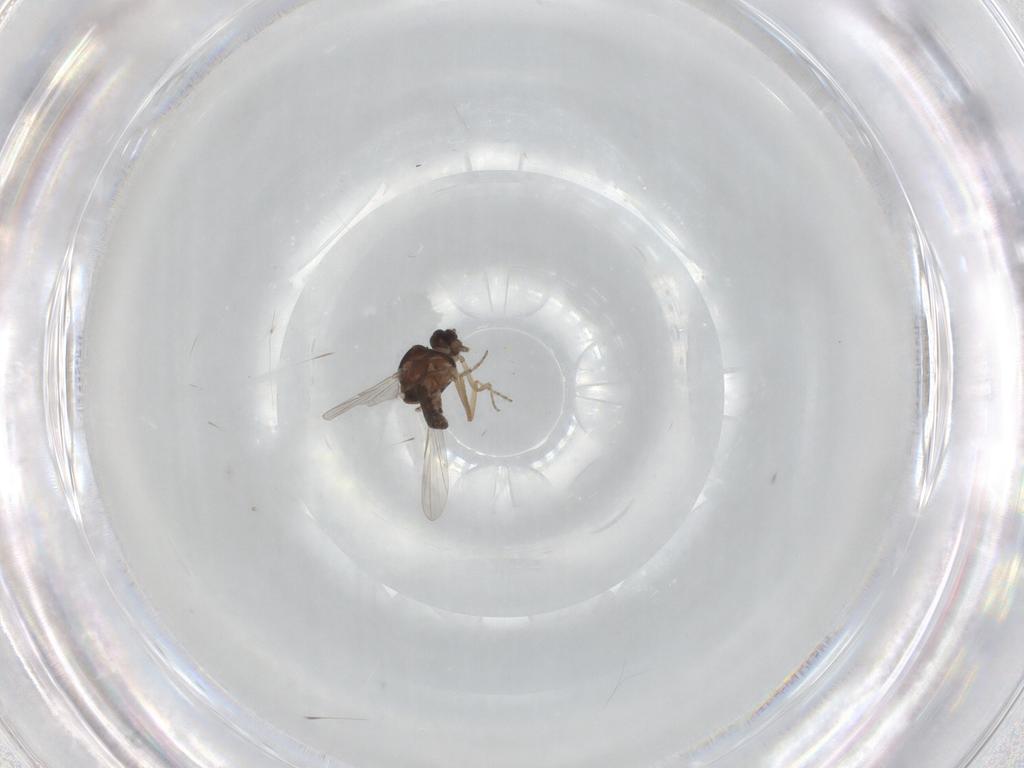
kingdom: Animalia
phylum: Arthropoda
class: Insecta
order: Diptera
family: Ceratopogonidae
